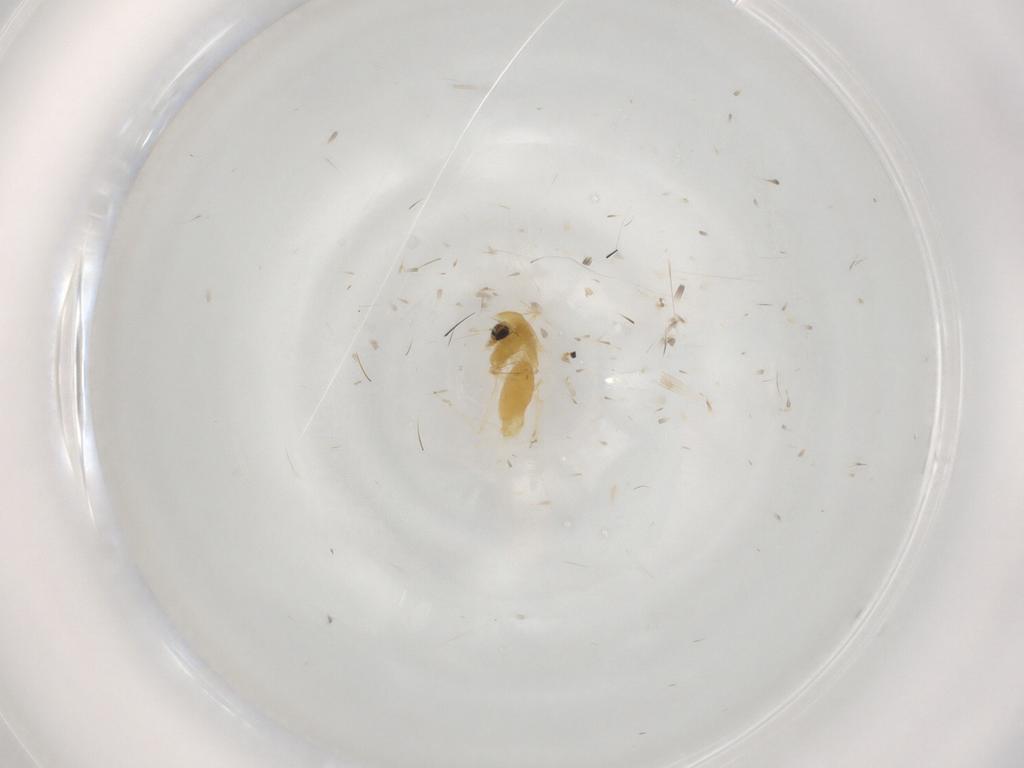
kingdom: Animalia
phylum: Arthropoda
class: Insecta
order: Diptera
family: Chironomidae
